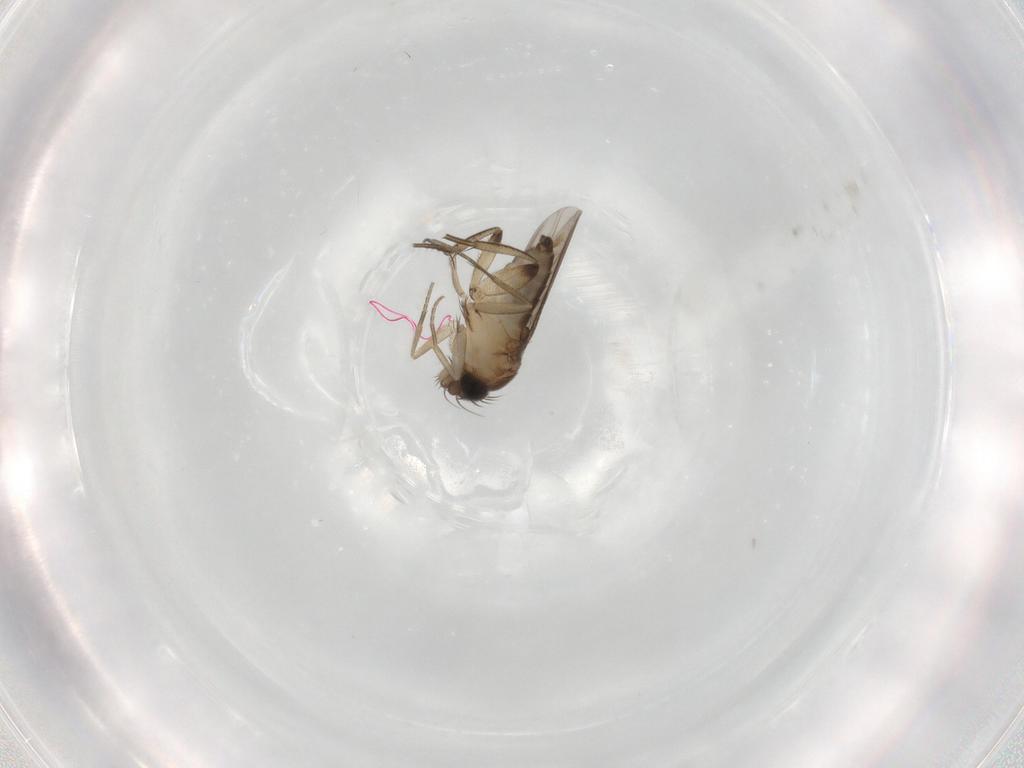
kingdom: Animalia
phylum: Arthropoda
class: Insecta
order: Diptera
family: Phoridae
